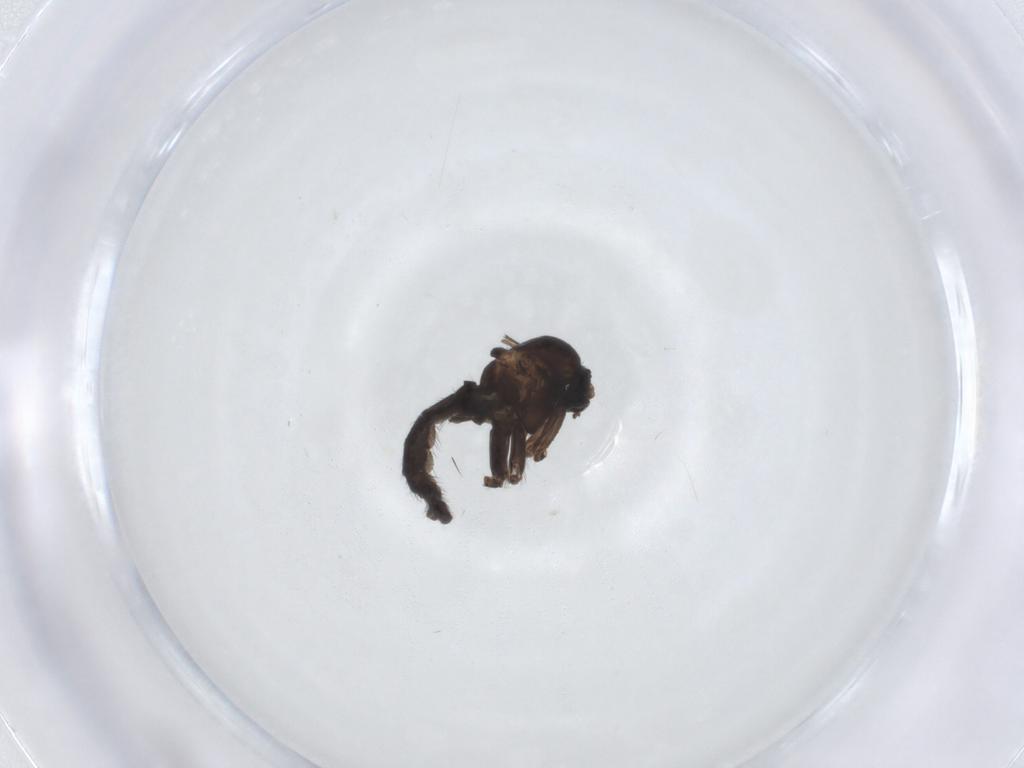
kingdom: Animalia
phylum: Arthropoda
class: Insecta
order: Diptera
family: Sciaridae
